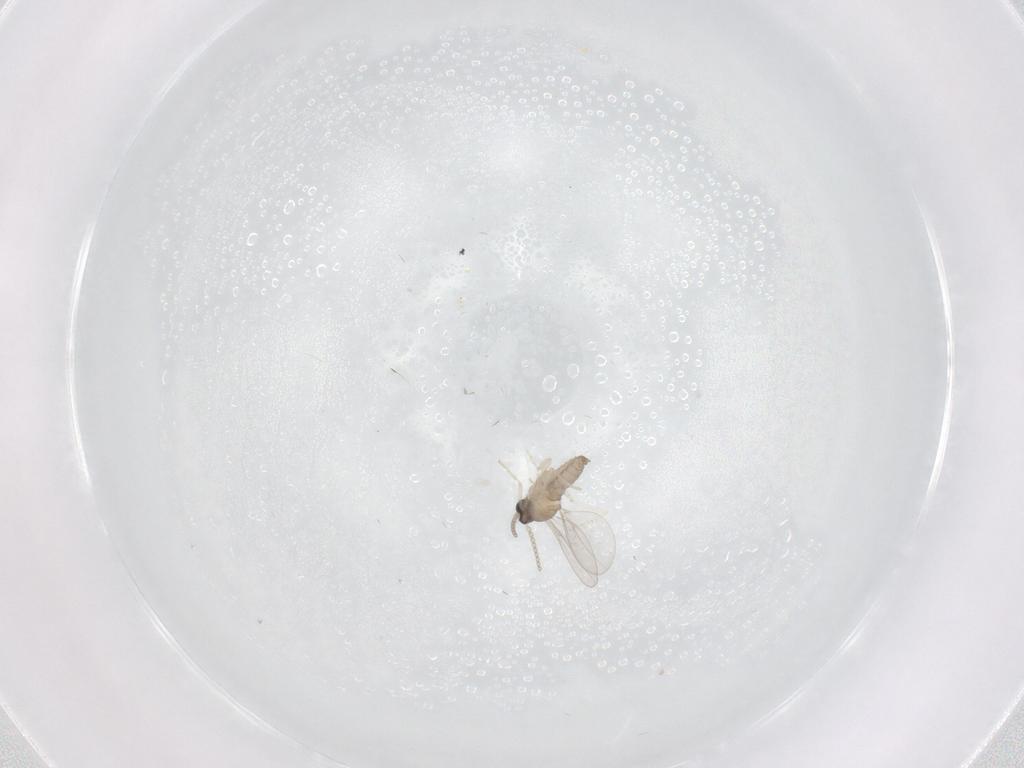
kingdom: Animalia
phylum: Arthropoda
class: Insecta
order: Diptera
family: Cecidomyiidae
